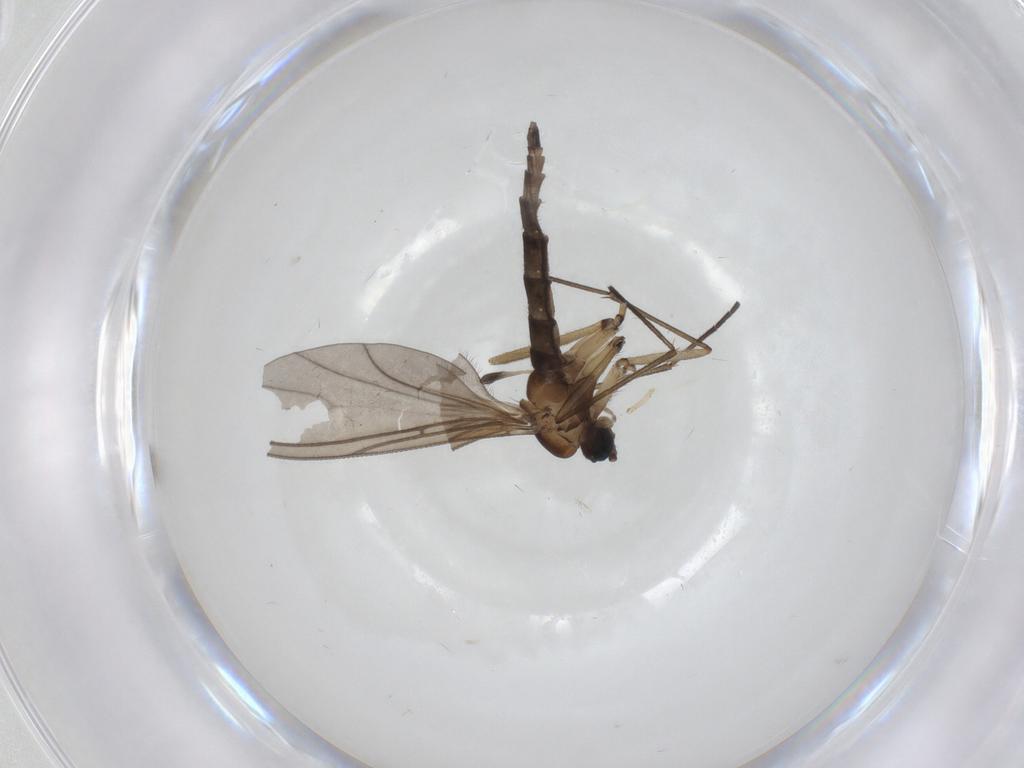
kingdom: Animalia
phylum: Arthropoda
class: Insecta
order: Diptera
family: Sciaridae
